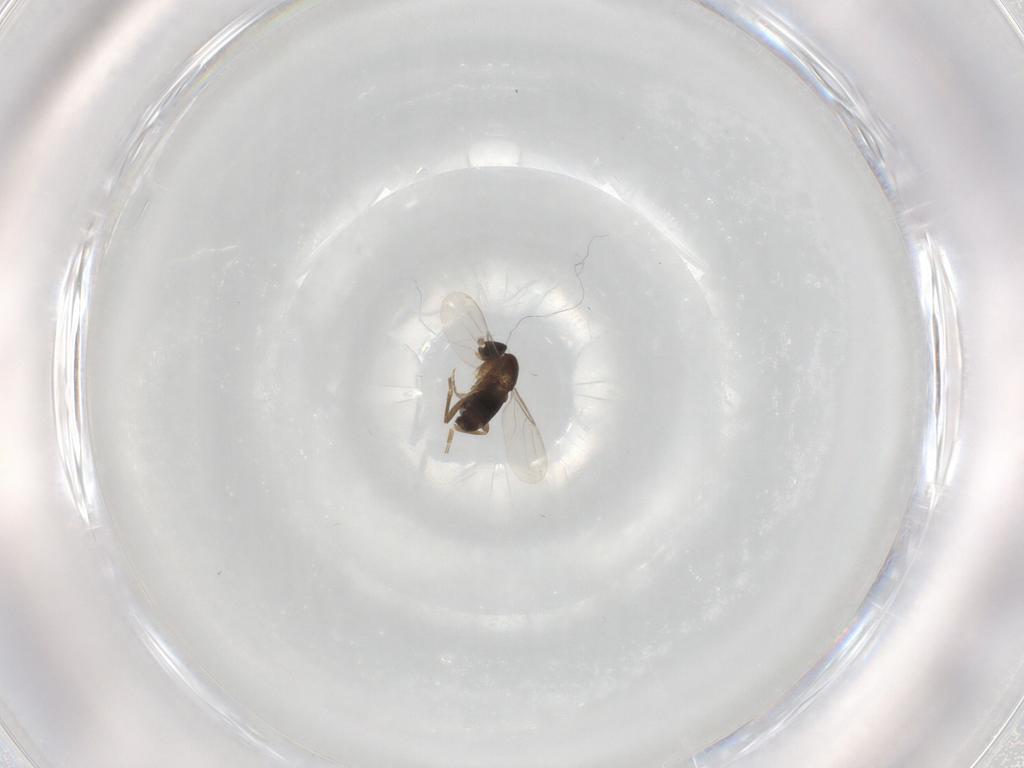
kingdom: Animalia
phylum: Arthropoda
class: Insecta
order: Diptera
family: Phoridae
